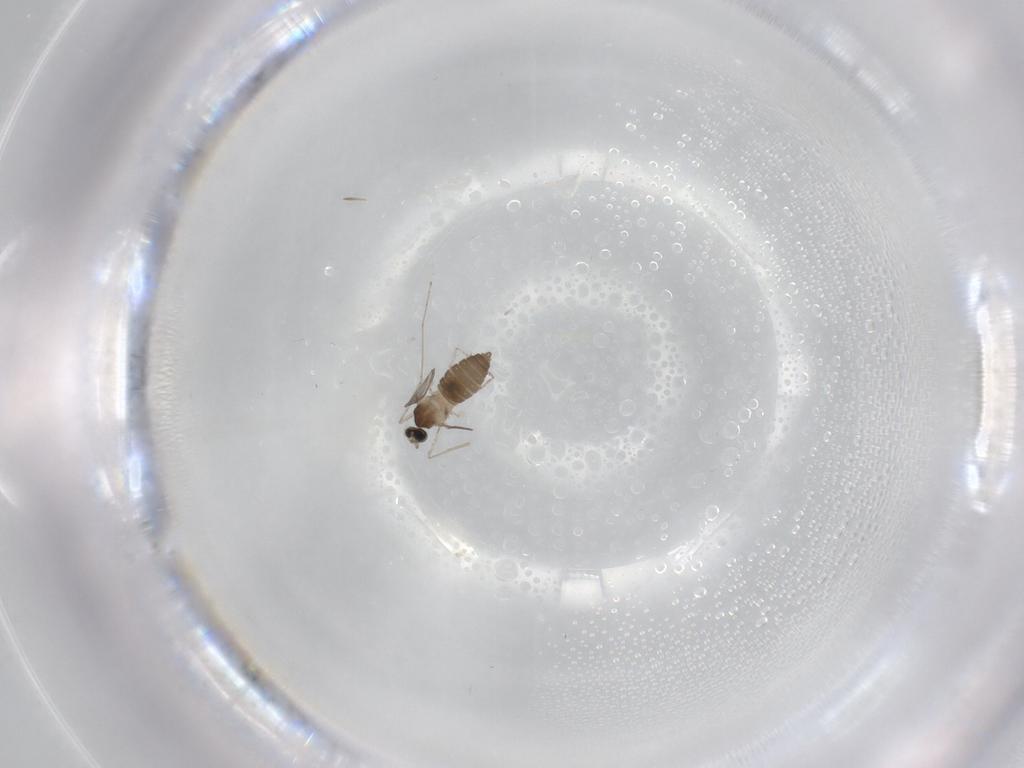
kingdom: Animalia
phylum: Arthropoda
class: Insecta
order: Diptera
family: Cecidomyiidae
